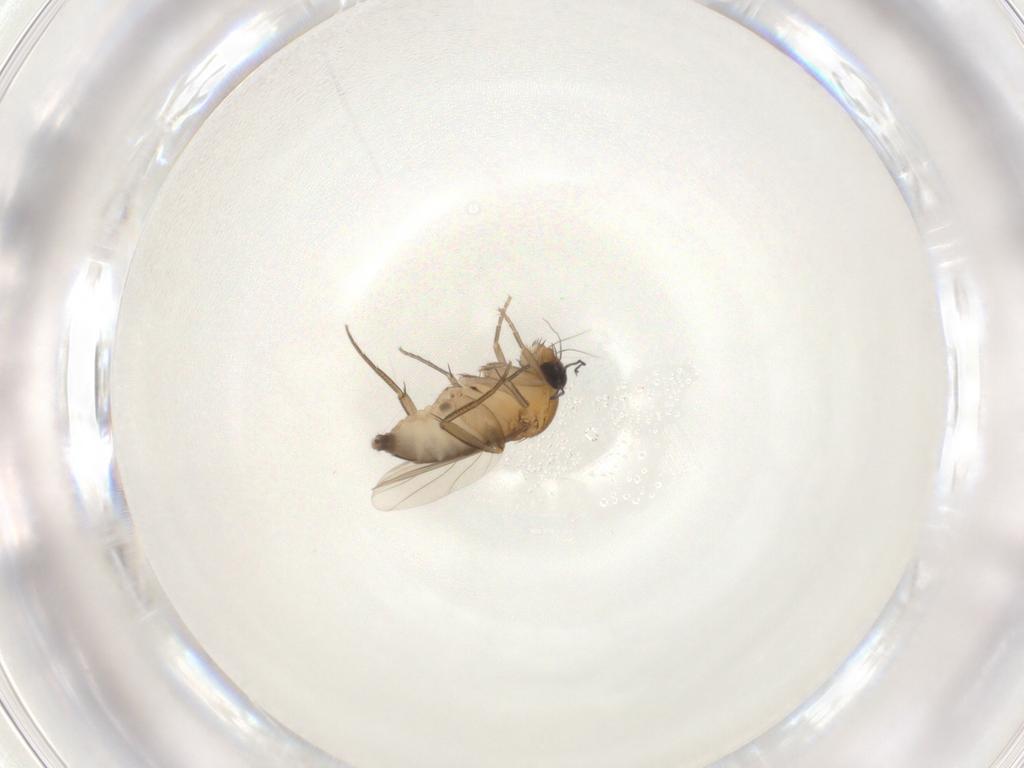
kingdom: Animalia
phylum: Arthropoda
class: Insecta
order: Diptera
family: Phoridae
